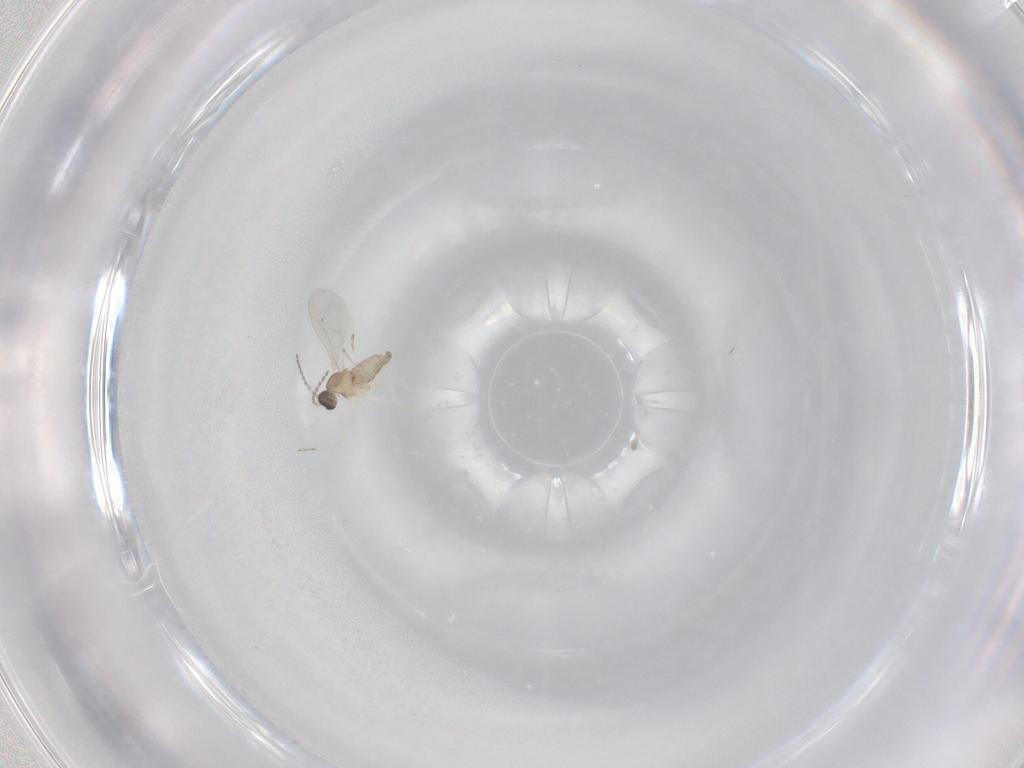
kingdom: Animalia
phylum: Arthropoda
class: Insecta
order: Diptera
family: Cecidomyiidae
